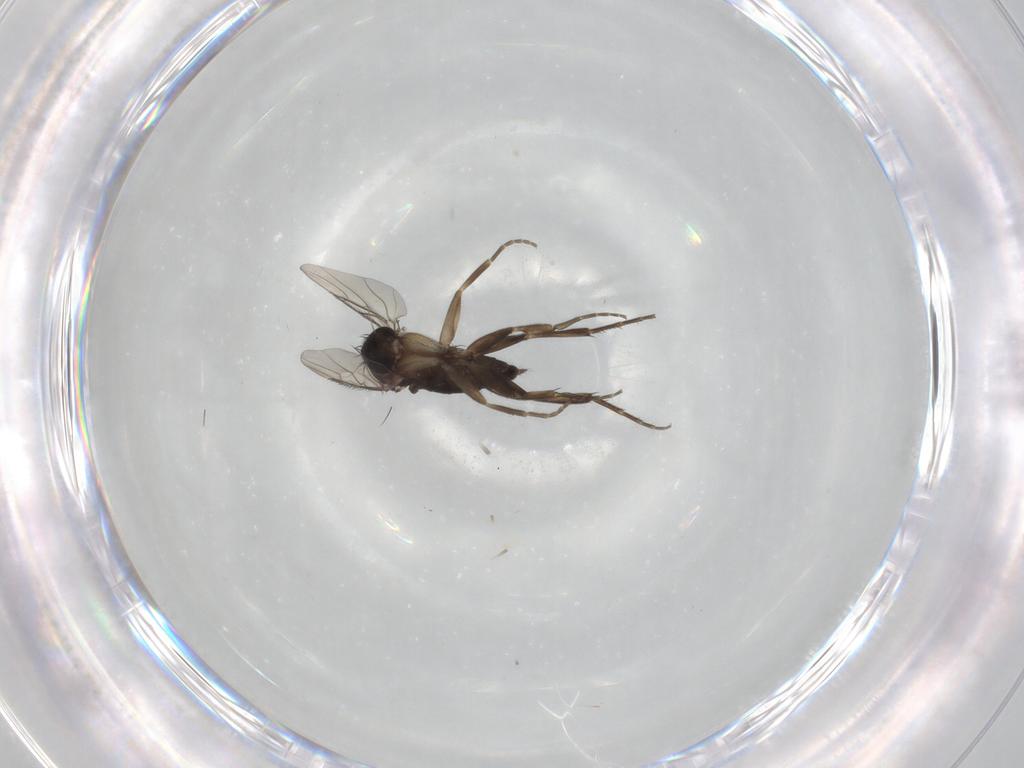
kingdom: Animalia
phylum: Arthropoda
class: Insecta
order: Diptera
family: Phoridae
